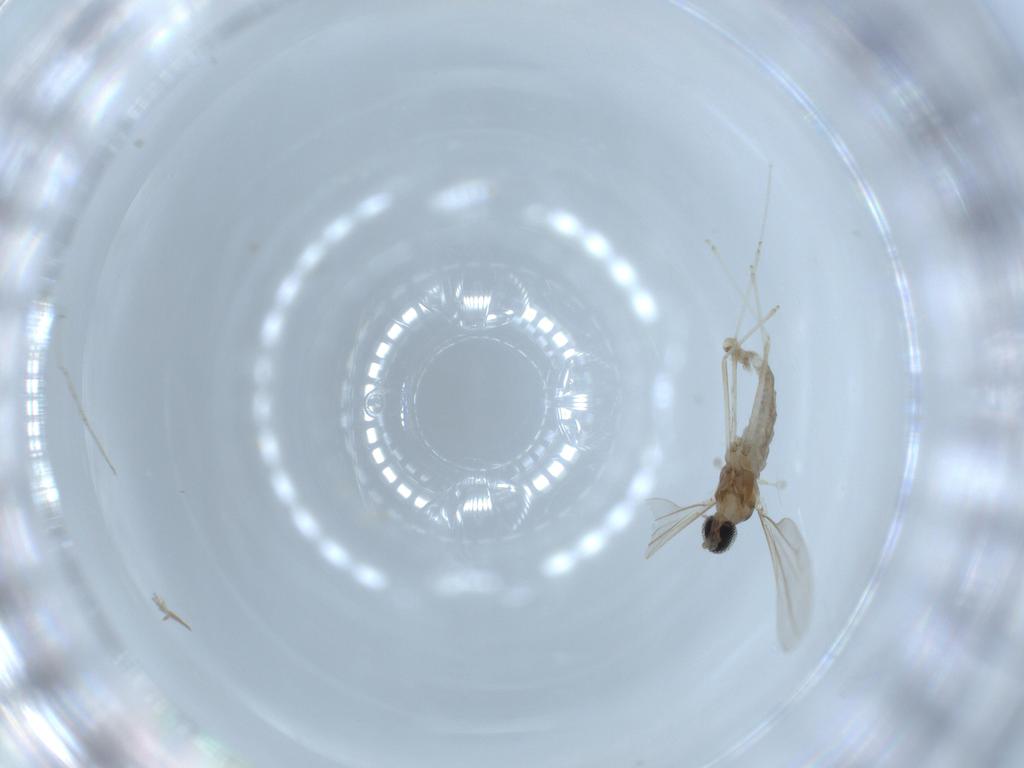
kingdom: Animalia
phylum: Arthropoda
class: Insecta
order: Diptera
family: Cecidomyiidae
